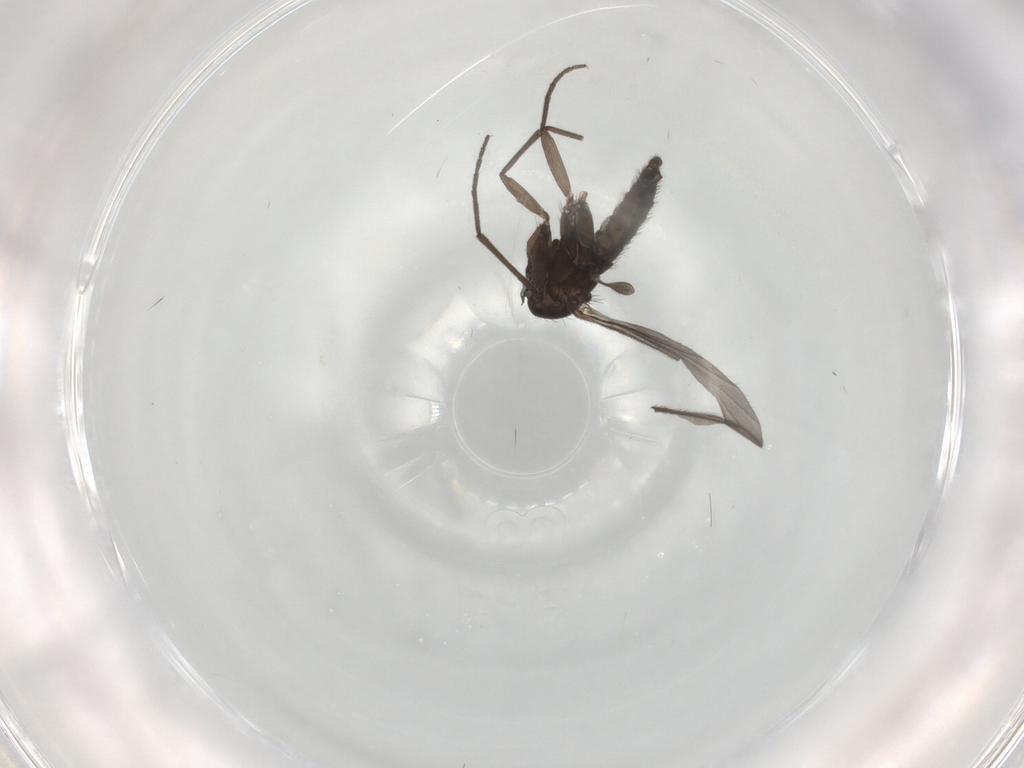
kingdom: Animalia
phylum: Arthropoda
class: Insecta
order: Diptera
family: Sciaridae
